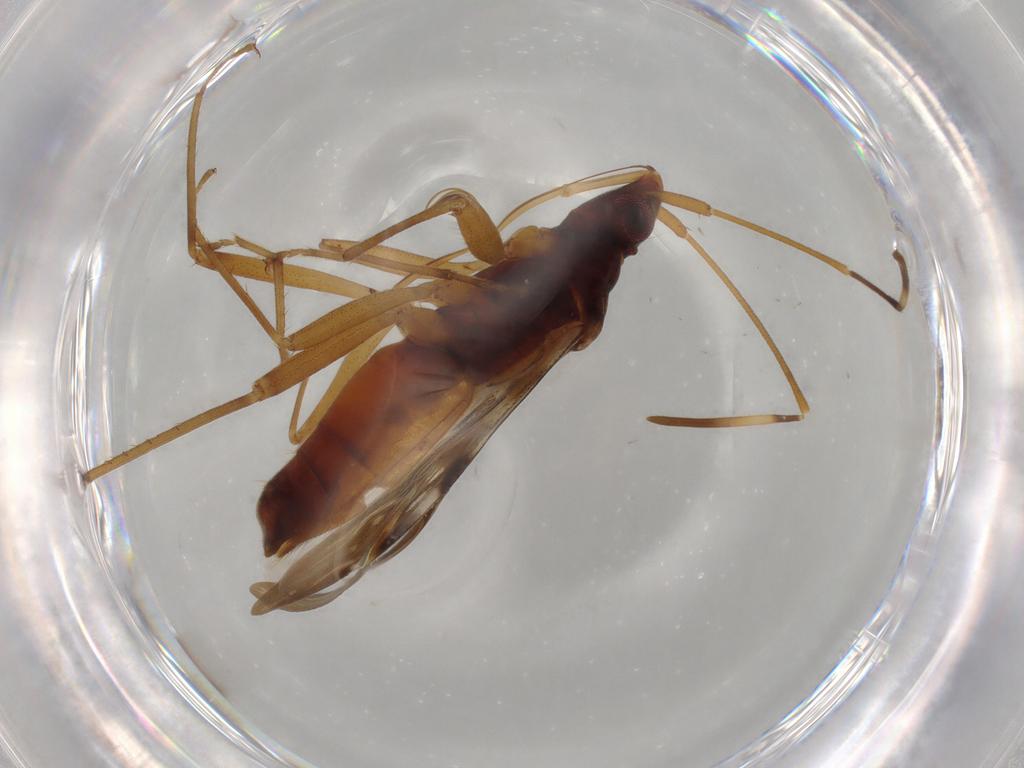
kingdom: Animalia
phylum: Arthropoda
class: Insecta
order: Hemiptera
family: Rhyparochromidae
